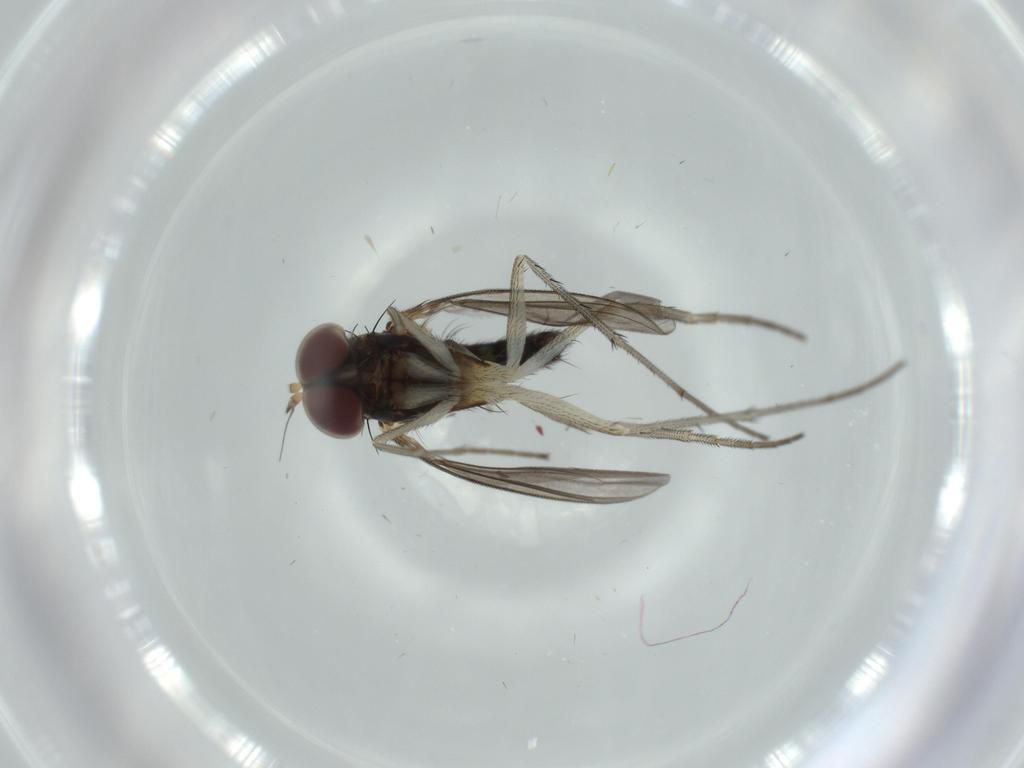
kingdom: Animalia
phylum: Arthropoda
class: Insecta
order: Diptera
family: Dolichopodidae
